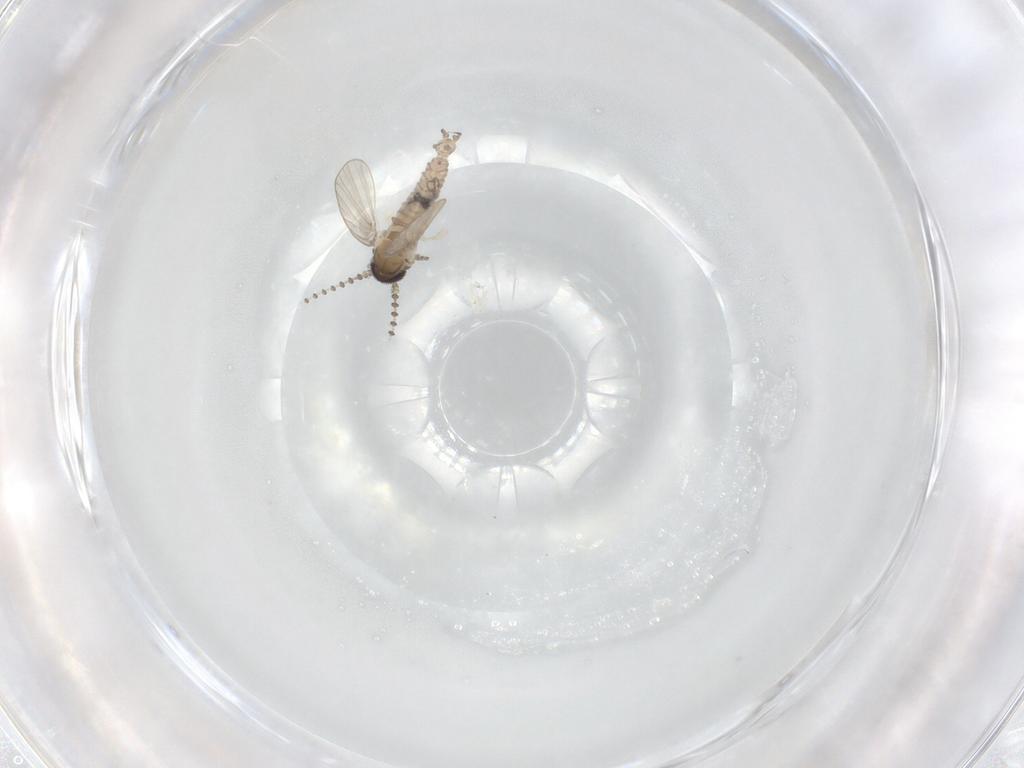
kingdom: Animalia
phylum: Arthropoda
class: Insecta
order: Diptera
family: Psychodidae
